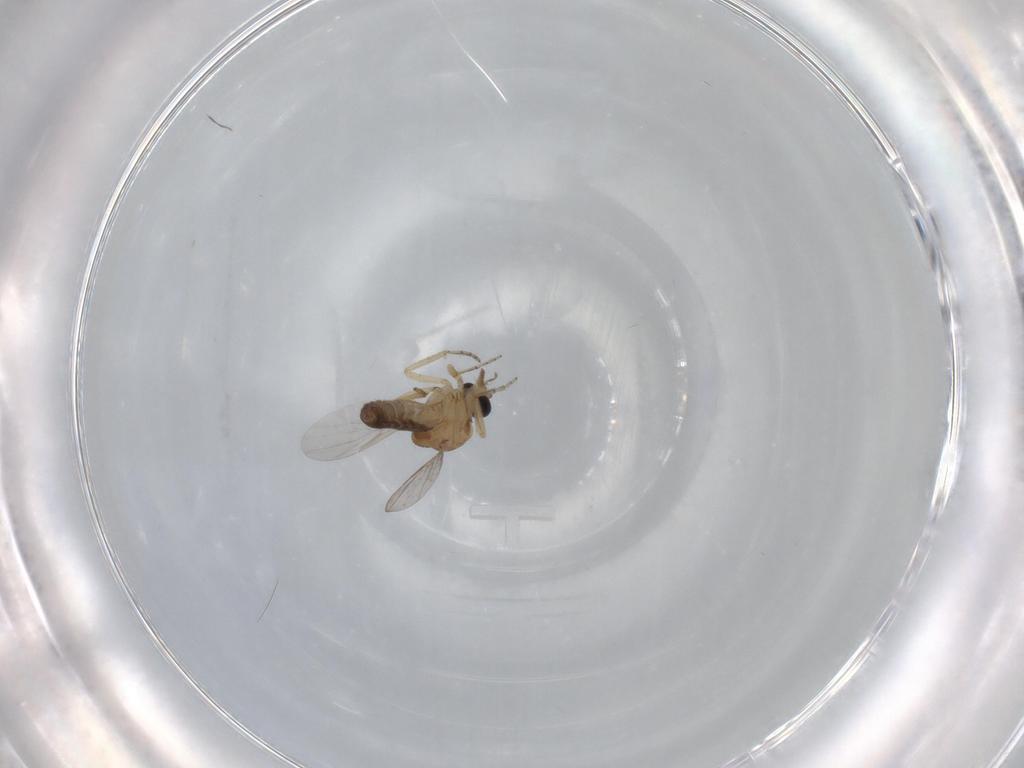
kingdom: Animalia
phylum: Arthropoda
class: Insecta
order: Diptera
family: Ceratopogonidae
